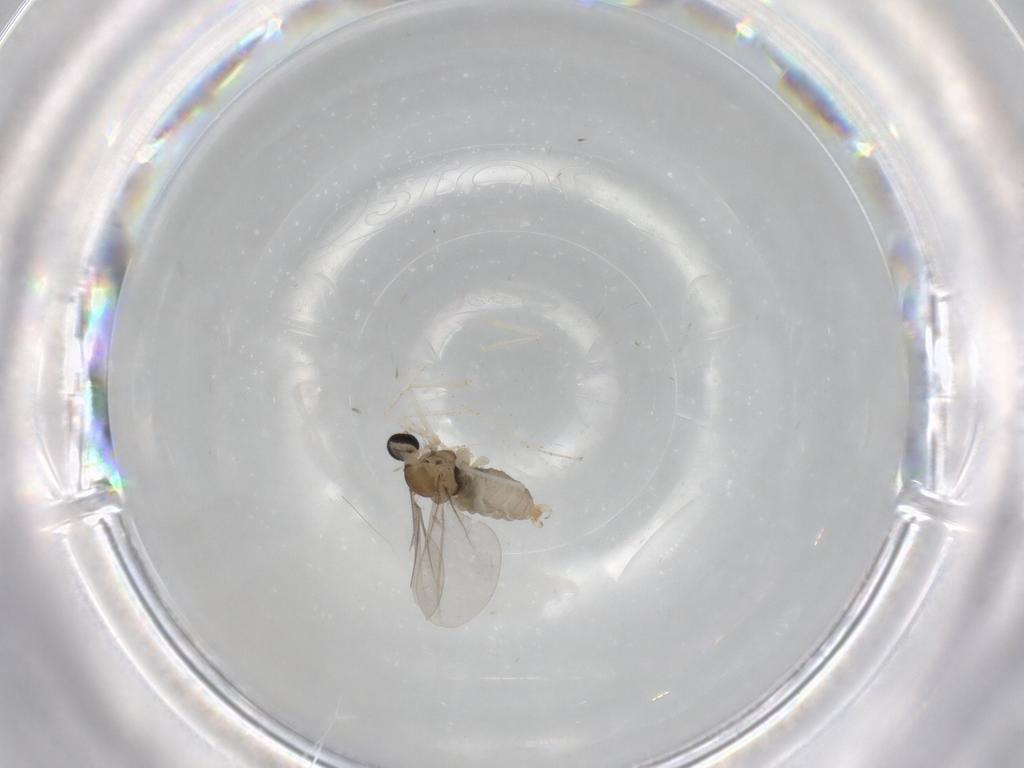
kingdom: Animalia
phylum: Arthropoda
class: Insecta
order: Diptera
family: Cecidomyiidae
